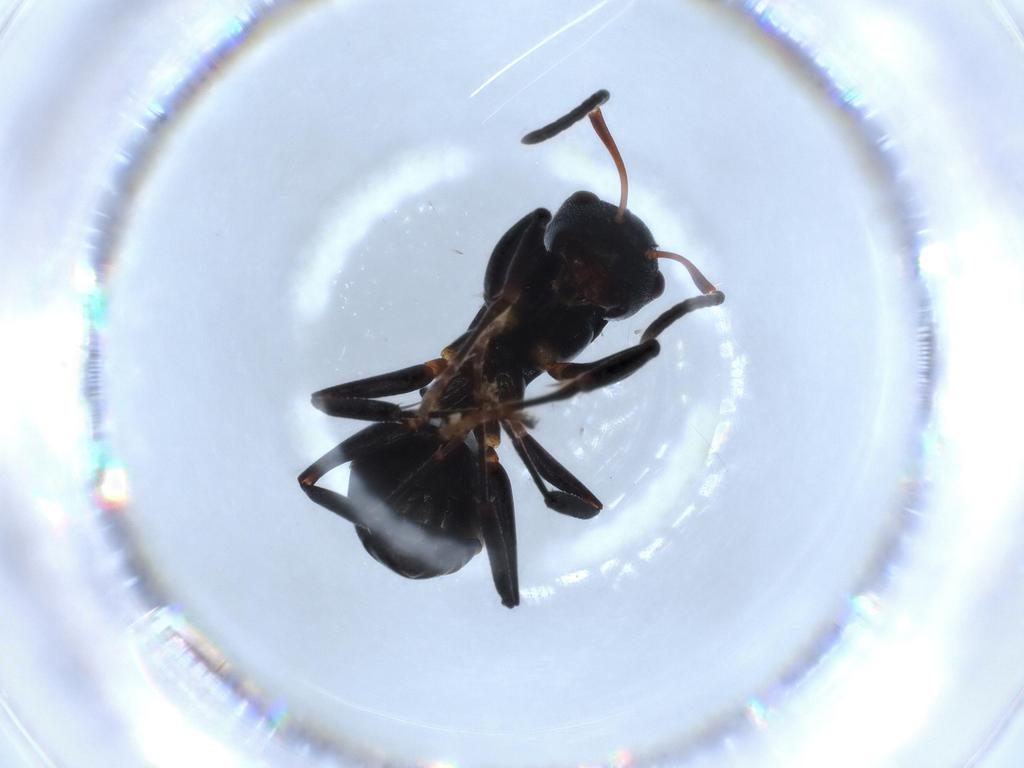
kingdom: Animalia
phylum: Arthropoda
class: Insecta
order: Hymenoptera
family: Formicidae
